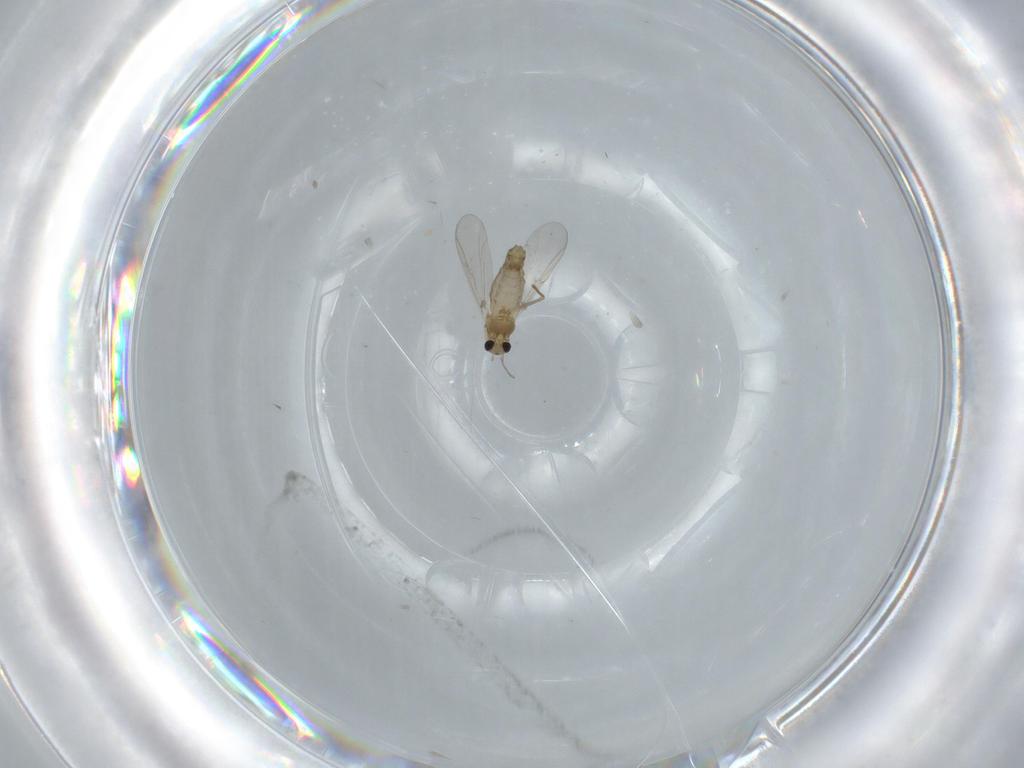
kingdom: Animalia
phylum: Arthropoda
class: Insecta
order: Diptera
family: Chironomidae
